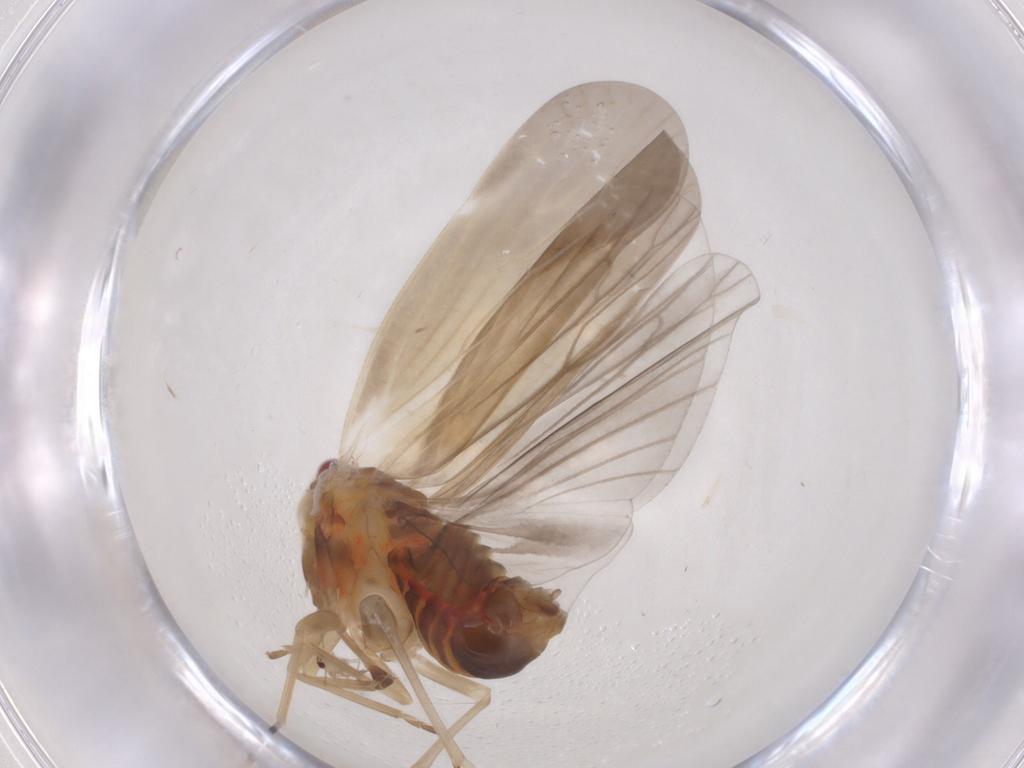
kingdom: Animalia
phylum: Arthropoda
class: Insecta
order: Hemiptera
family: Derbidae
